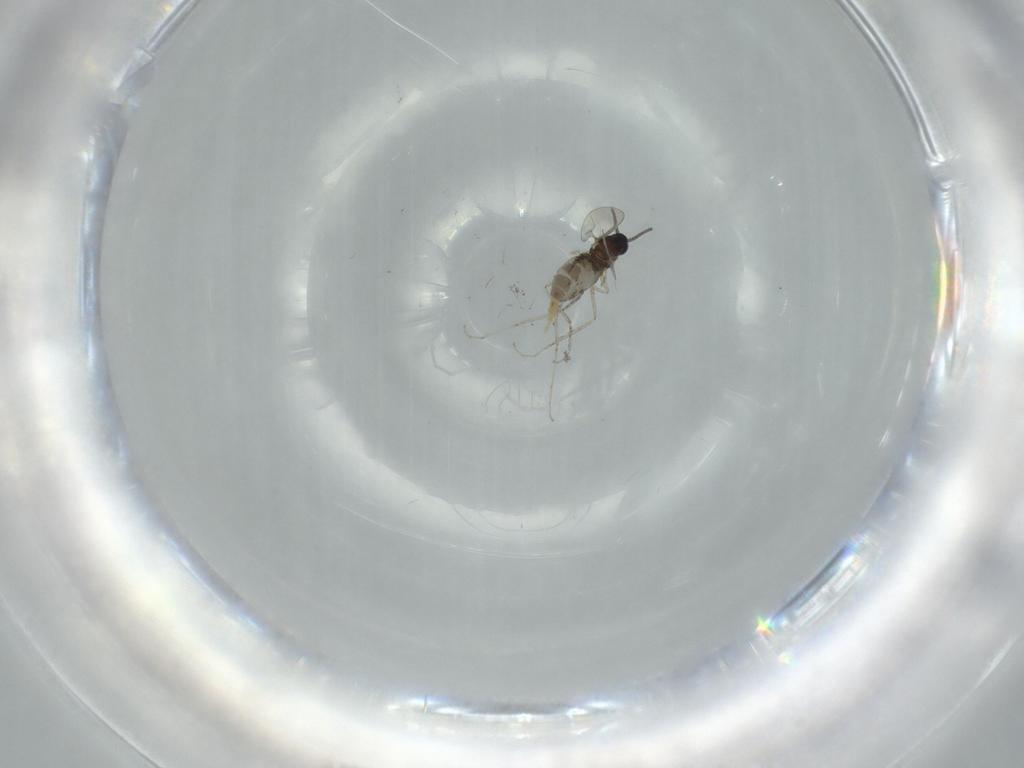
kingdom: Animalia
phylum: Arthropoda
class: Insecta
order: Diptera
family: Phoridae
